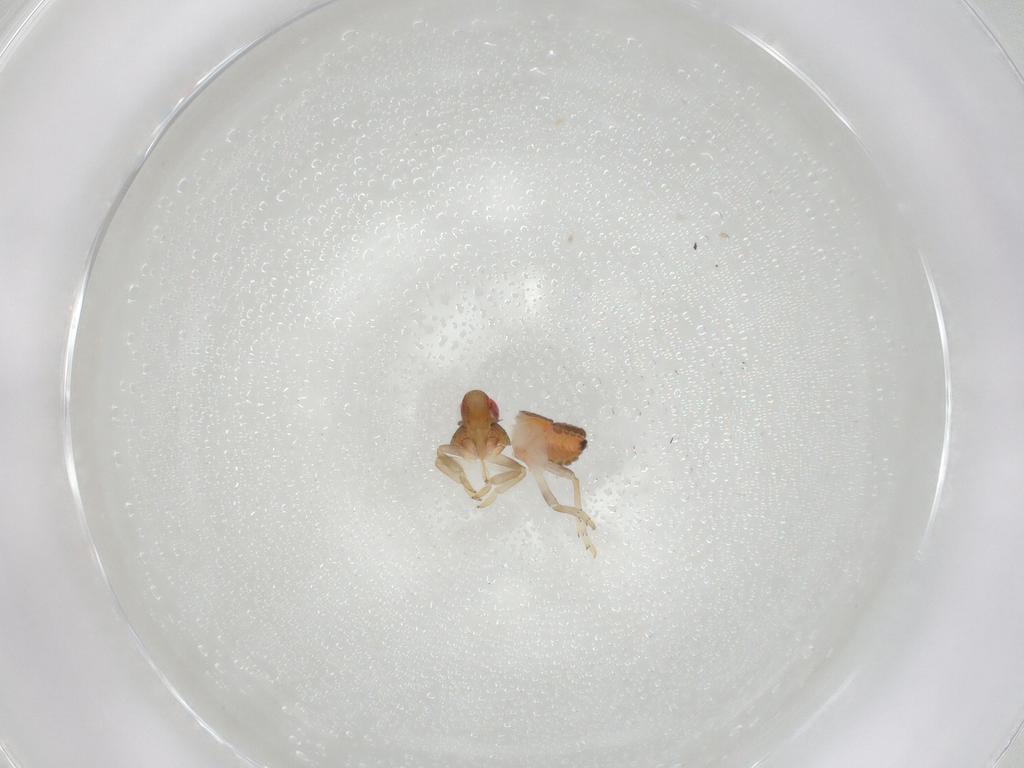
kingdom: Animalia
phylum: Arthropoda
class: Insecta
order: Hemiptera
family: Issidae
